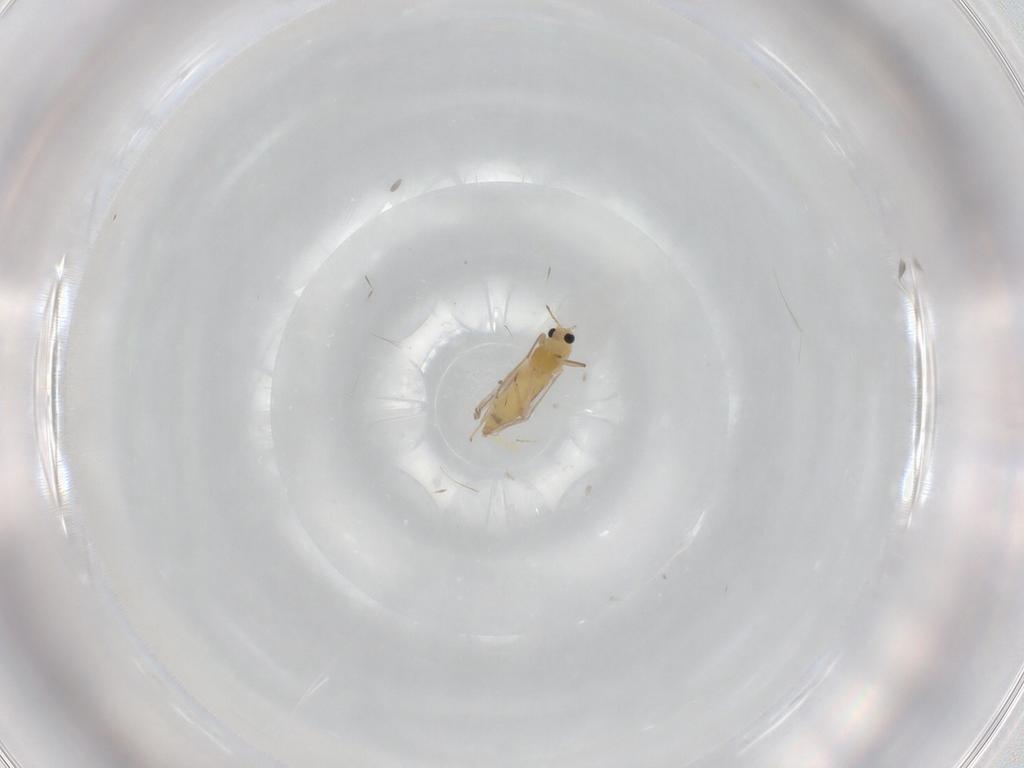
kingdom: Animalia
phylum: Arthropoda
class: Insecta
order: Diptera
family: Chironomidae
